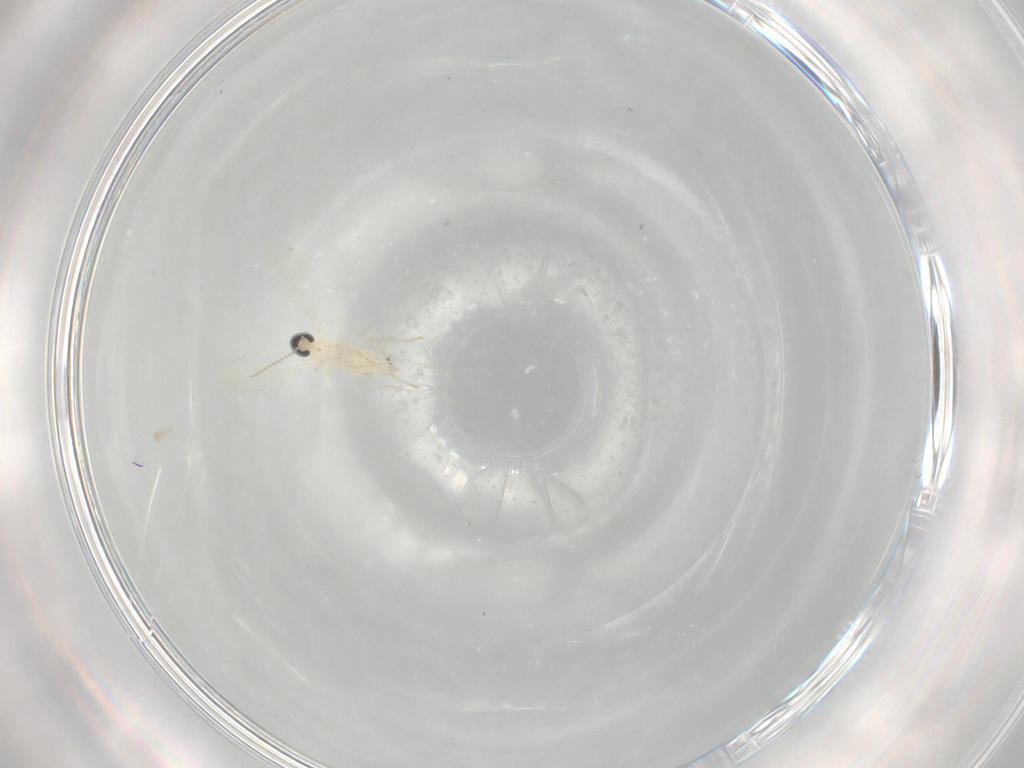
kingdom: Animalia
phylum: Arthropoda
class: Insecta
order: Diptera
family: Cecidomyiidae
